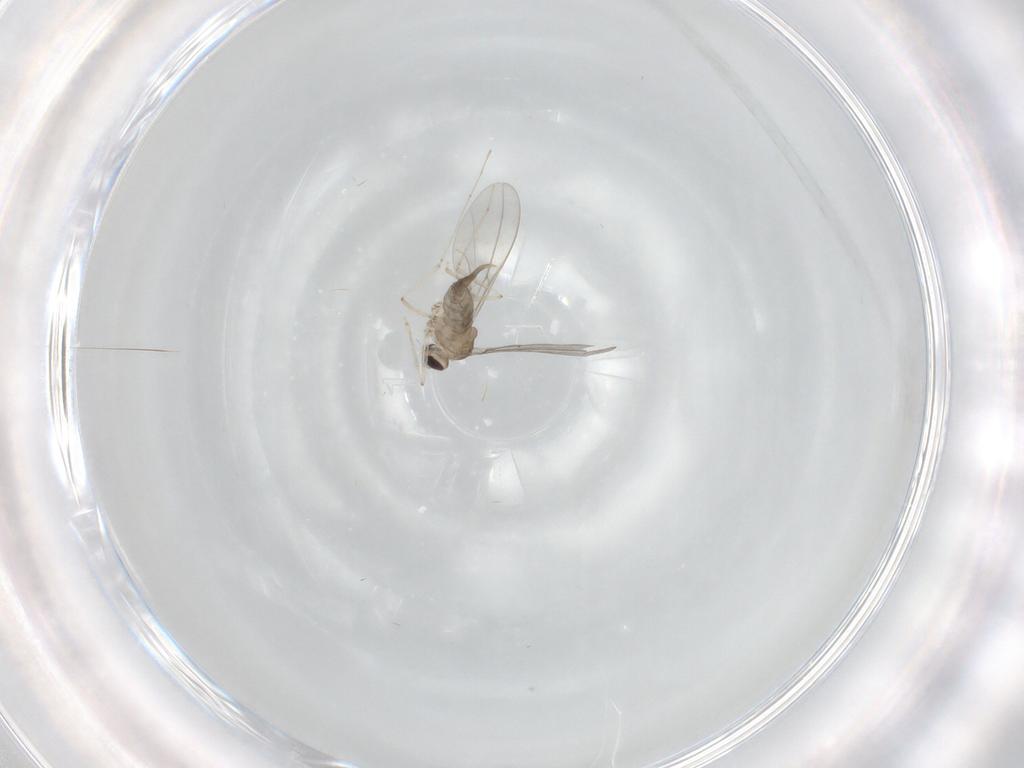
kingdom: Animalia
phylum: Arthropoda
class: Insecta
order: Diptera
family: Cecidomyiidae
